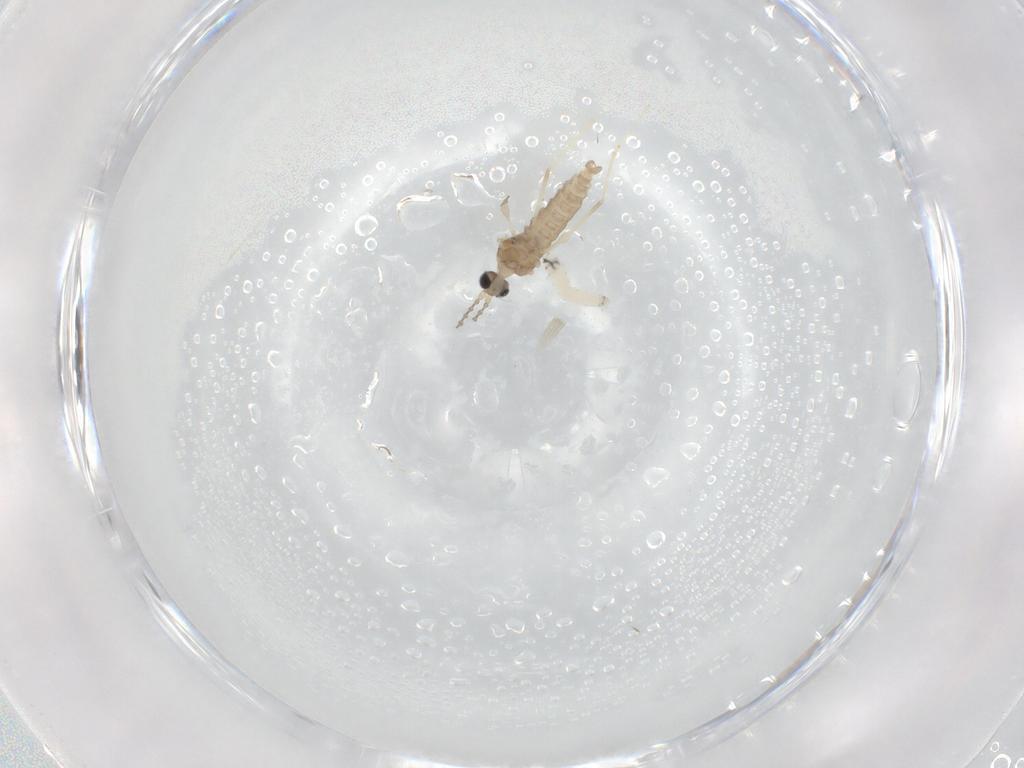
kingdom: Animalia
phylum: Arthropoda
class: Insecta
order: Diptera
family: Cecidomyiidae
